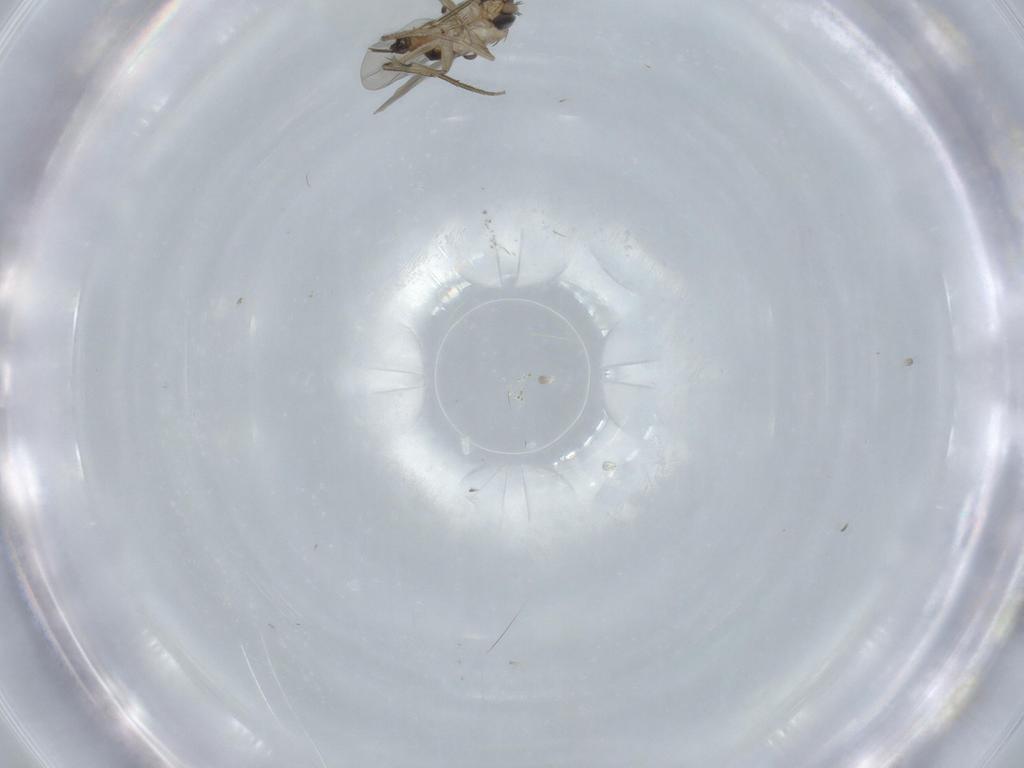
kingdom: Animalia
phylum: Arthropoda
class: Insecta
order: Diptera
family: Milichiidae
